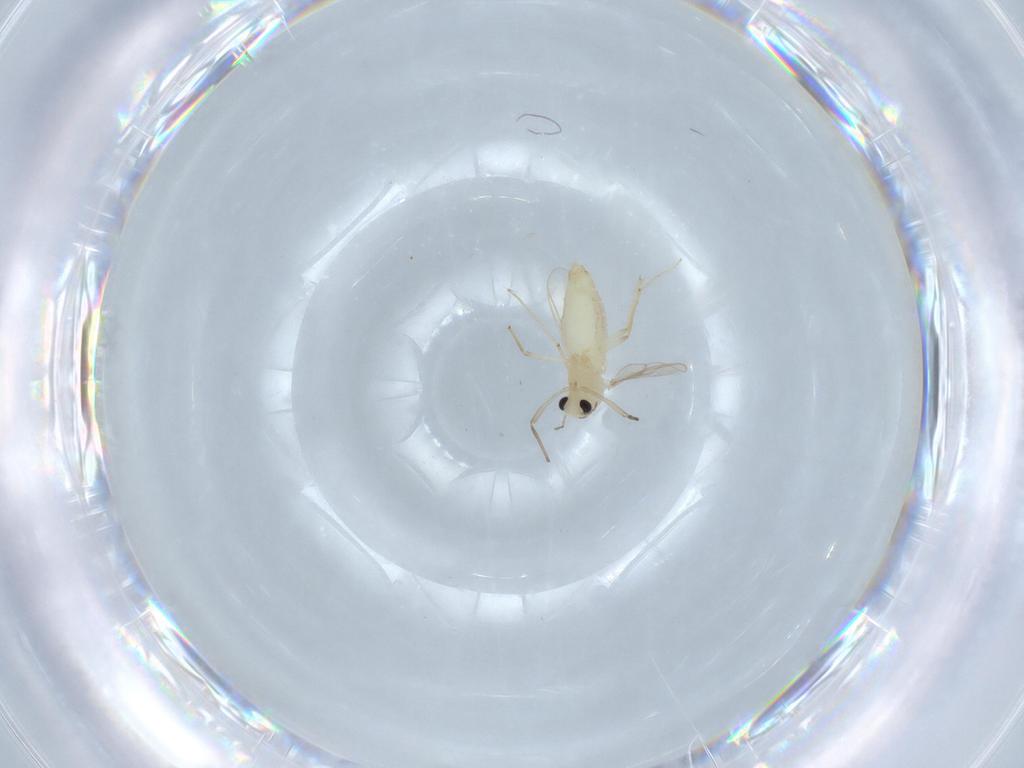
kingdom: Animalia
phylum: Arthropoda
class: Insecta
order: Diptera
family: Chironomidae
